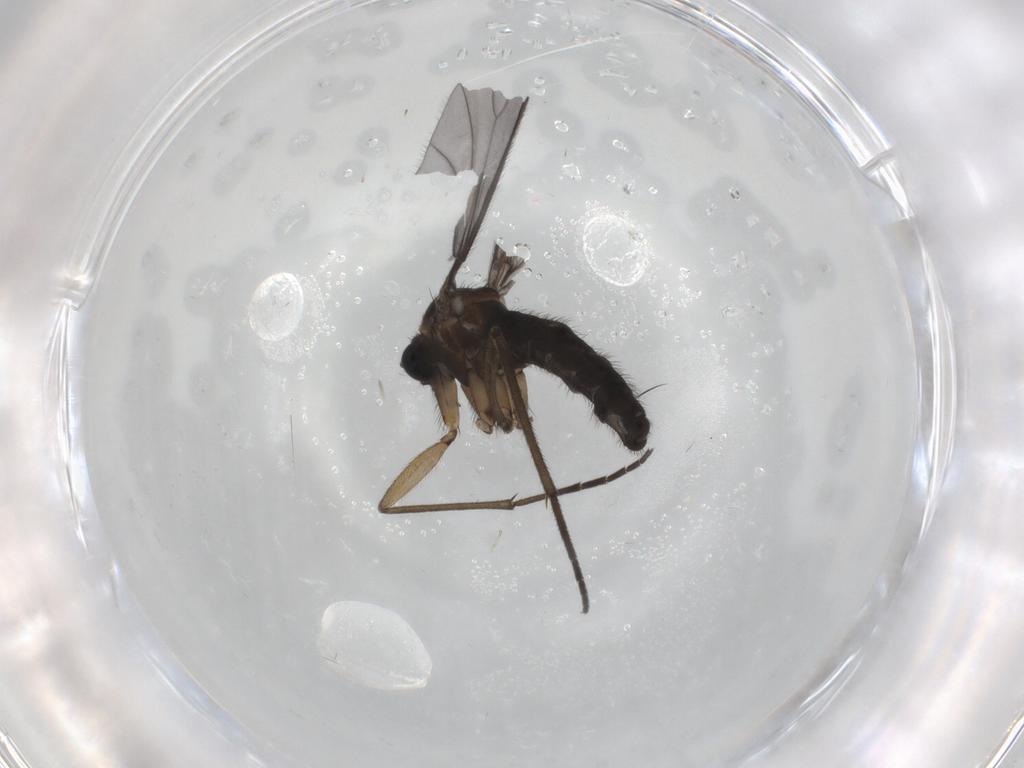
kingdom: Animalia
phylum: Arthropoda
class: Insecta
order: Diptera
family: Sciaridae
